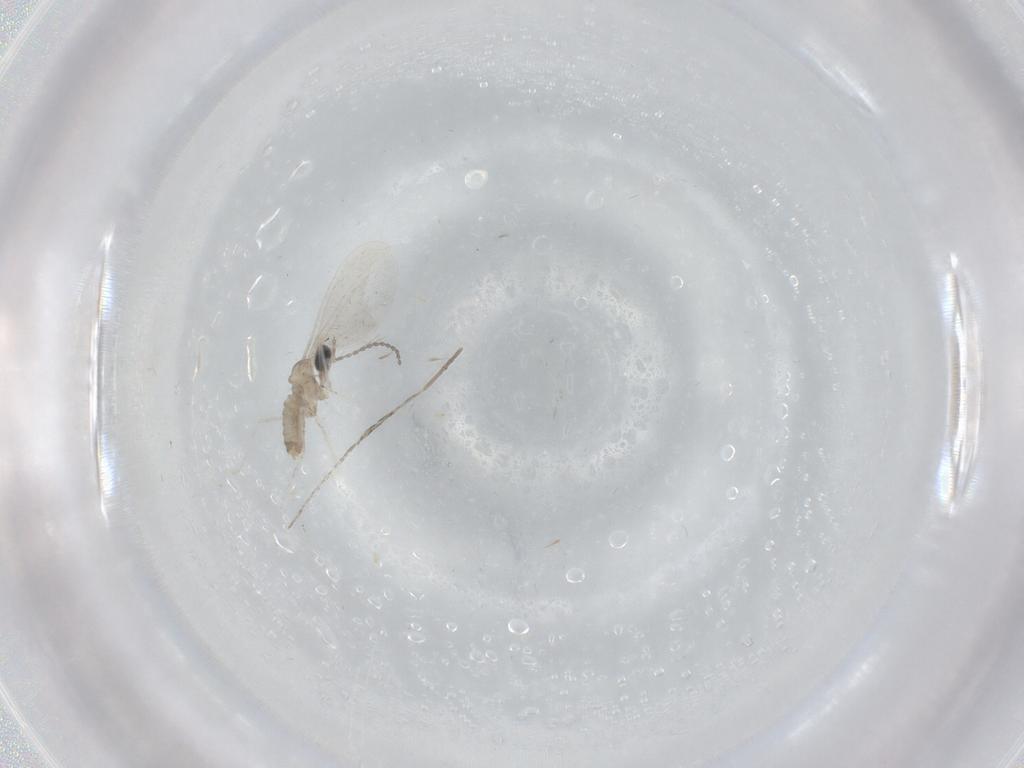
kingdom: Animalia
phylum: Arthropoda
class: Insecta
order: Diptera
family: Cecidomyiidae
